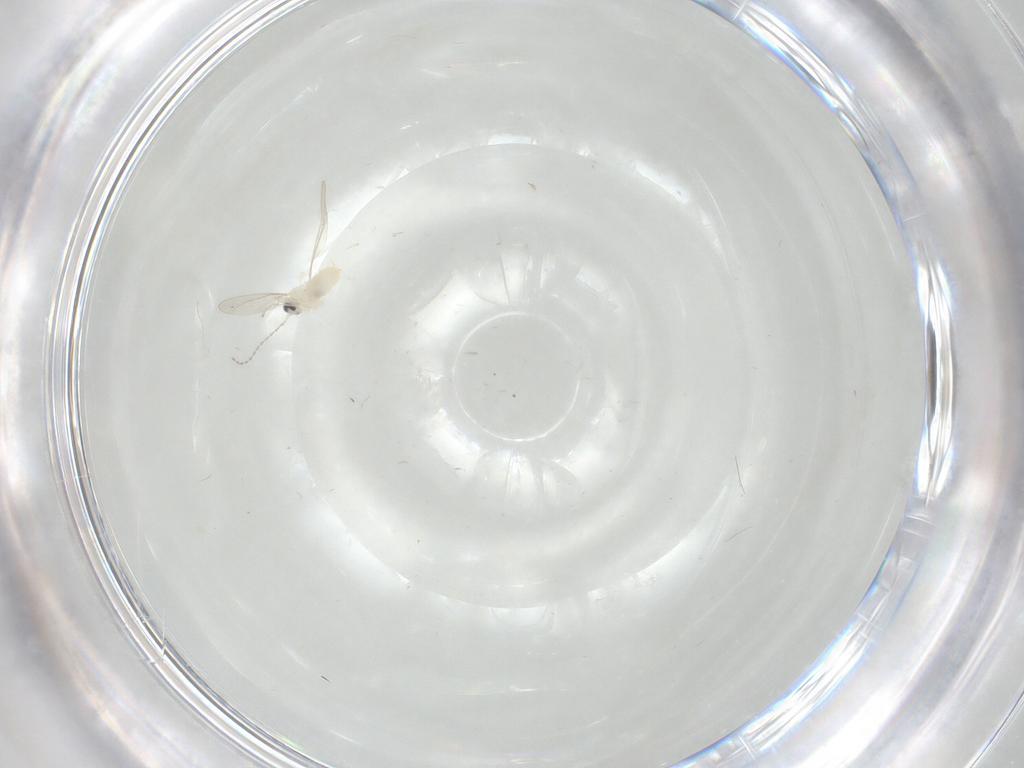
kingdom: Animalia
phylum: Arthropoda
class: Insecta
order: Diptera
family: Cecidomyiidae
